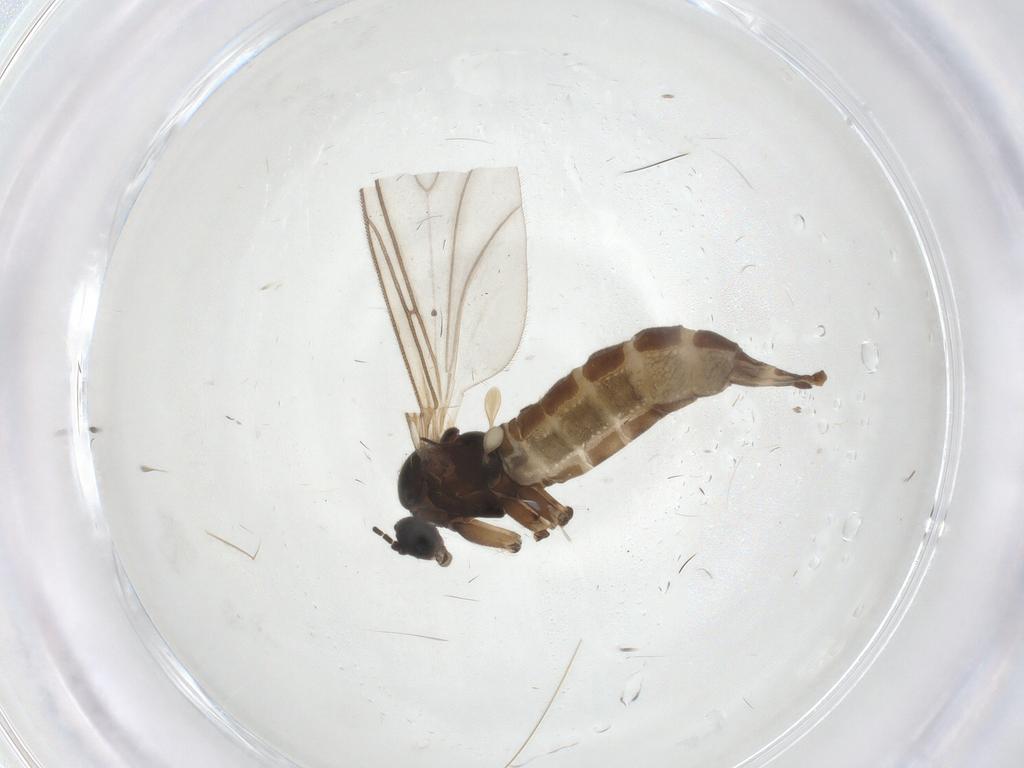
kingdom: Animalia
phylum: Arthropoda
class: Insecta
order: Diptera
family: Sciaridae
